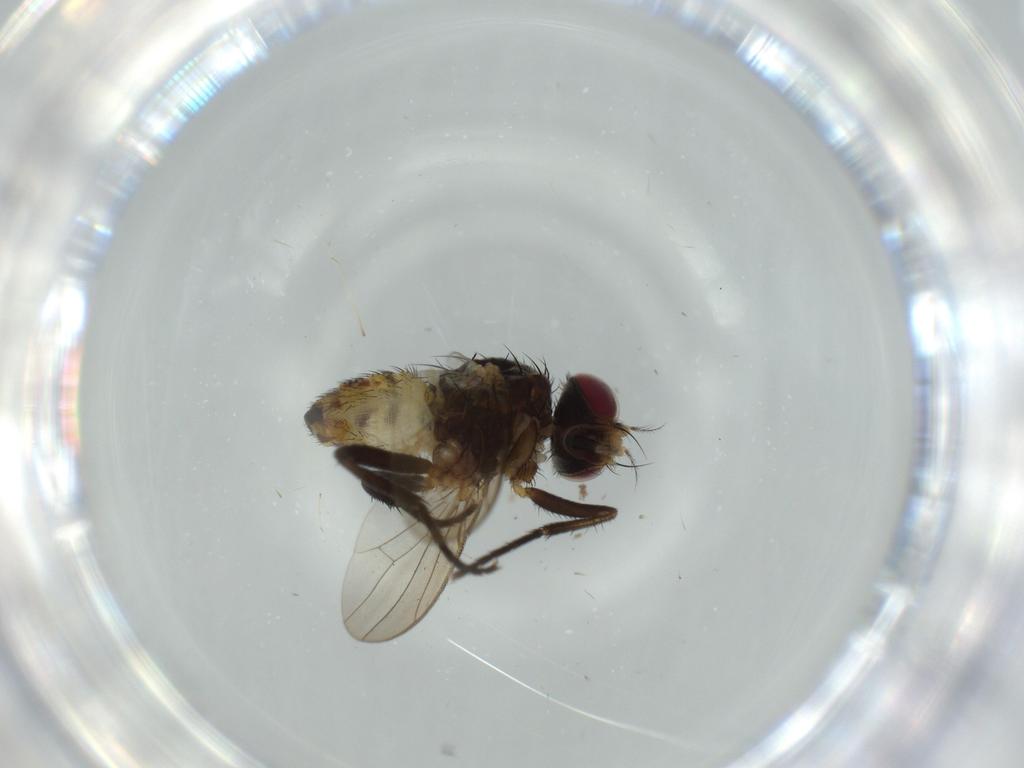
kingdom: Animalia
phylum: Arthropoda
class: Insecta
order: Diptera
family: Anthomyiidae
